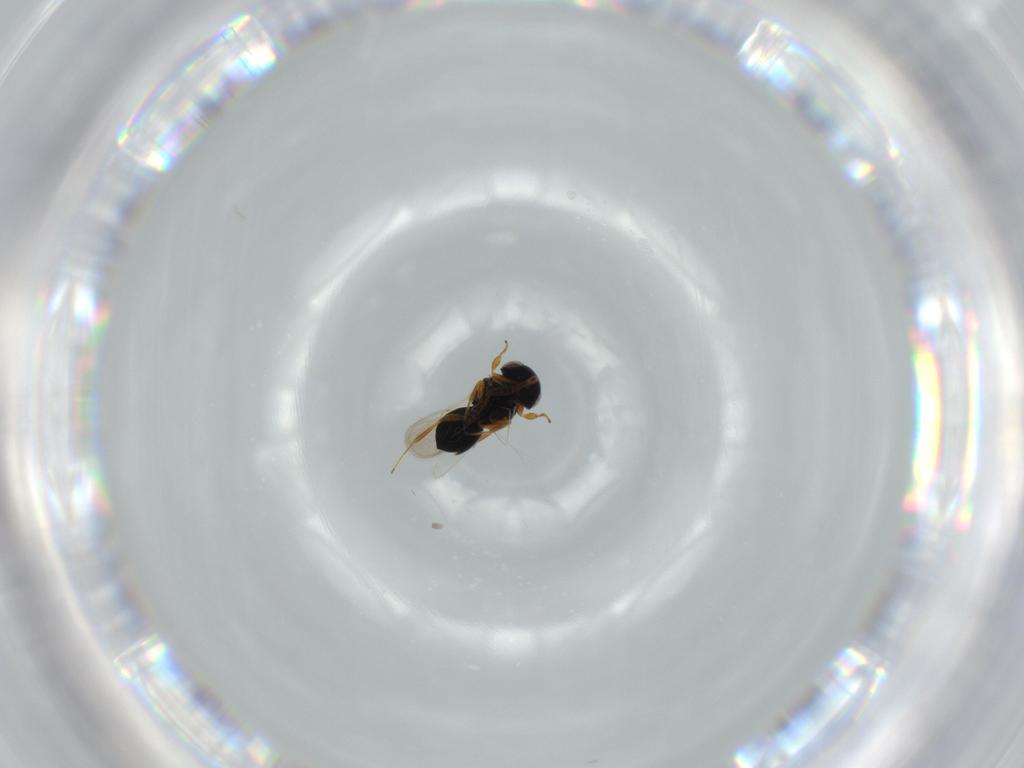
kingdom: Animalia
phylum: Arthropoda
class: Insecta
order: Hymenoptera
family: Scelionidae
